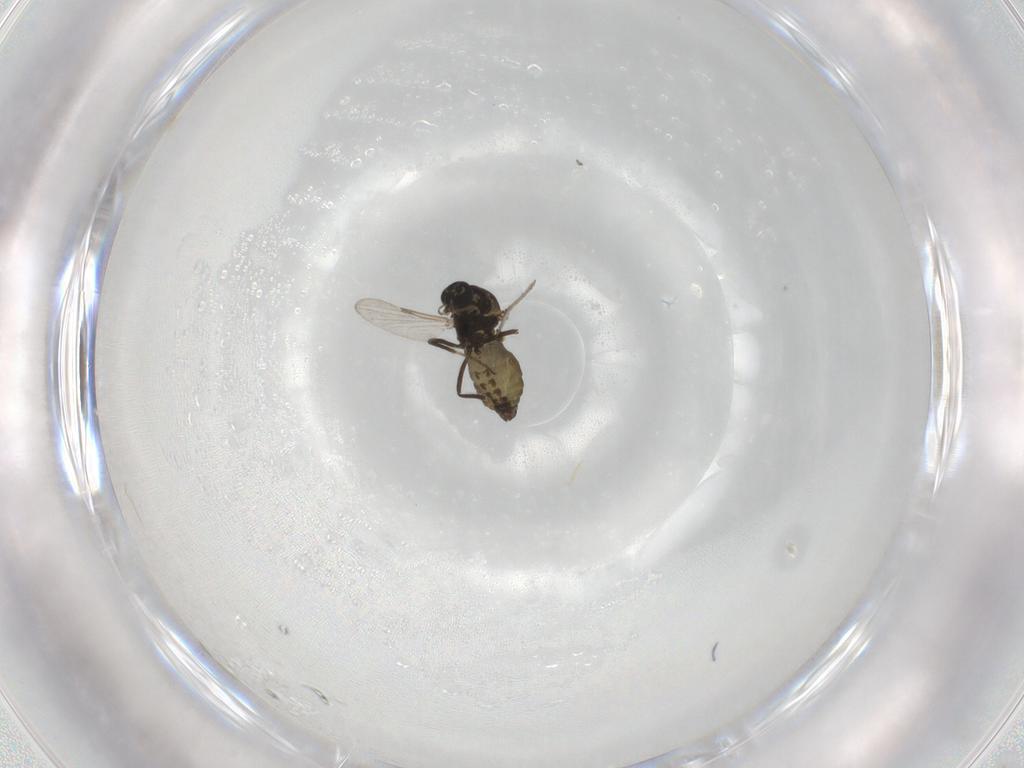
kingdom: Animalia
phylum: Arthropoda
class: Insecta
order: Diptera
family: Ceratopogonidae
